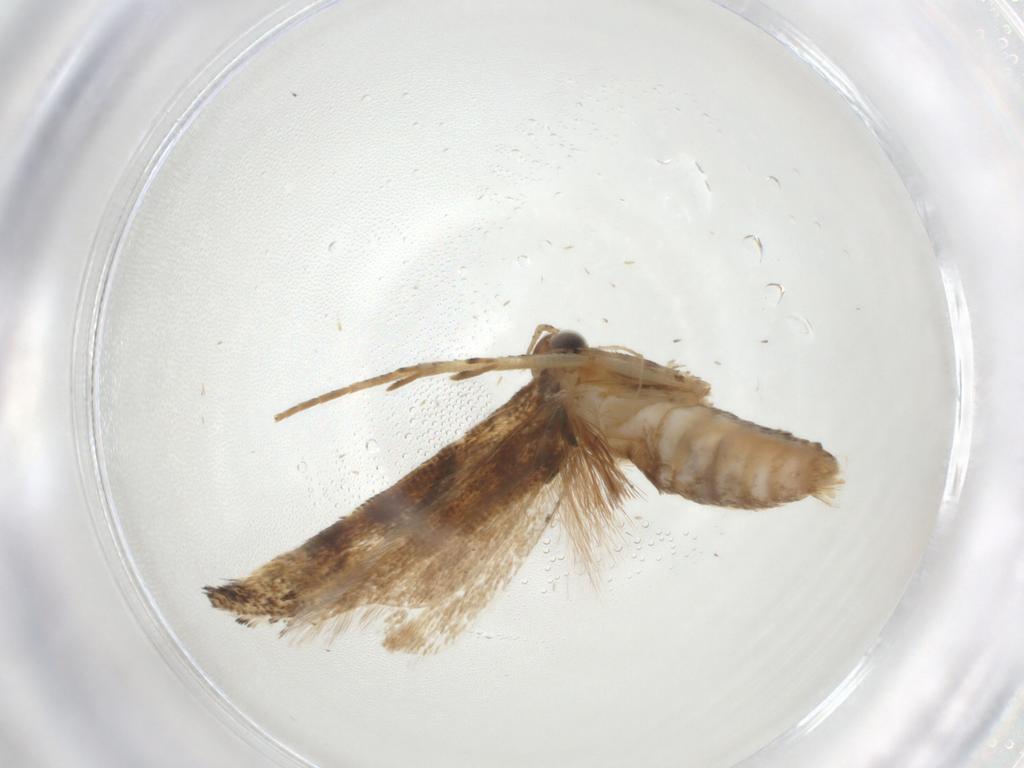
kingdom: Animalia
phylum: Arthropoda
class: Insecta
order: Lepidoptera
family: Gelechiidae
